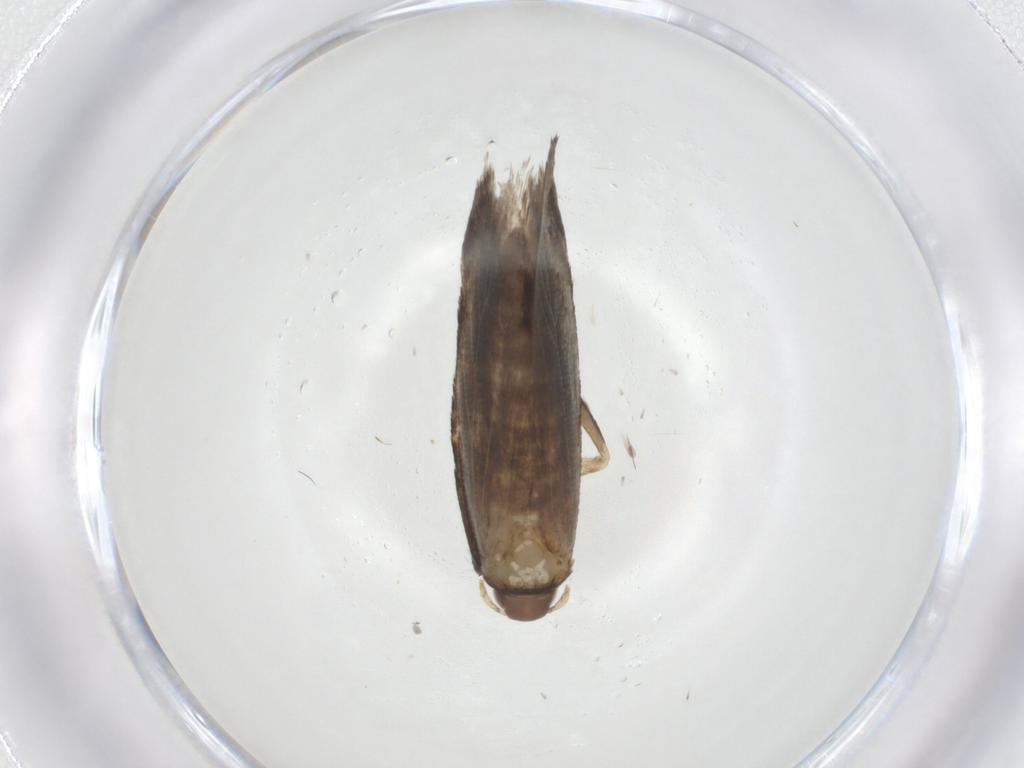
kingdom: Animalia
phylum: Arthropoda
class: Insecta
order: Lepidoptera
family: Gelechiidae
